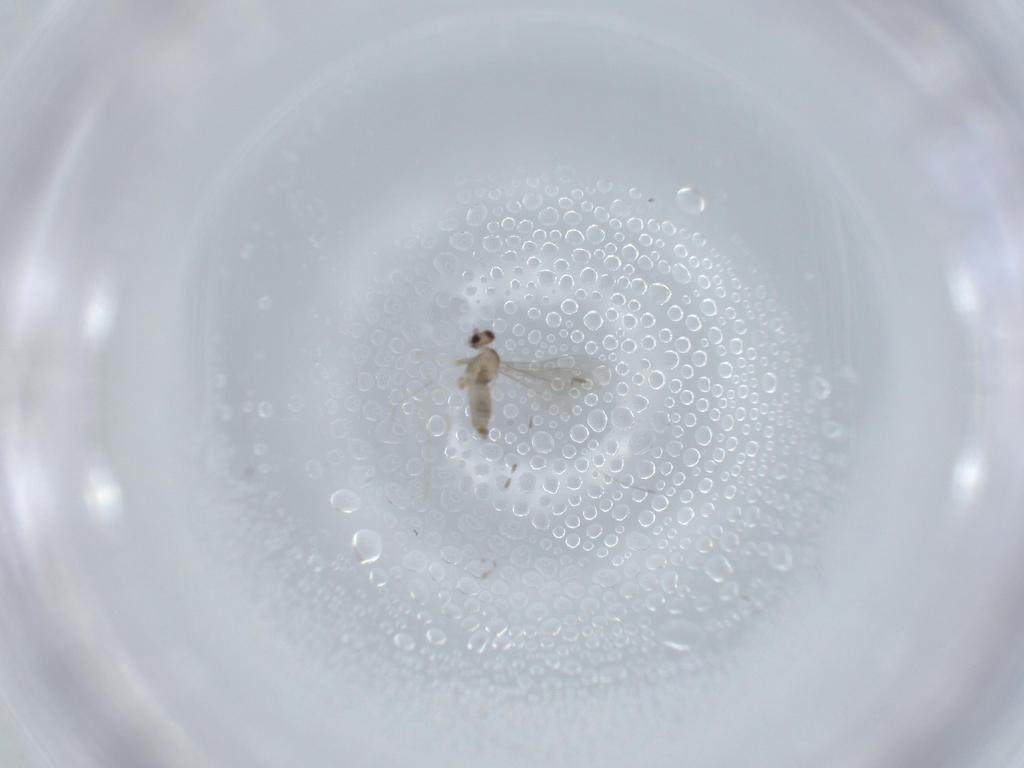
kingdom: Animalia
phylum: Arthropoda
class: Insecta
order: Diptera
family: Cecidomyiidae
